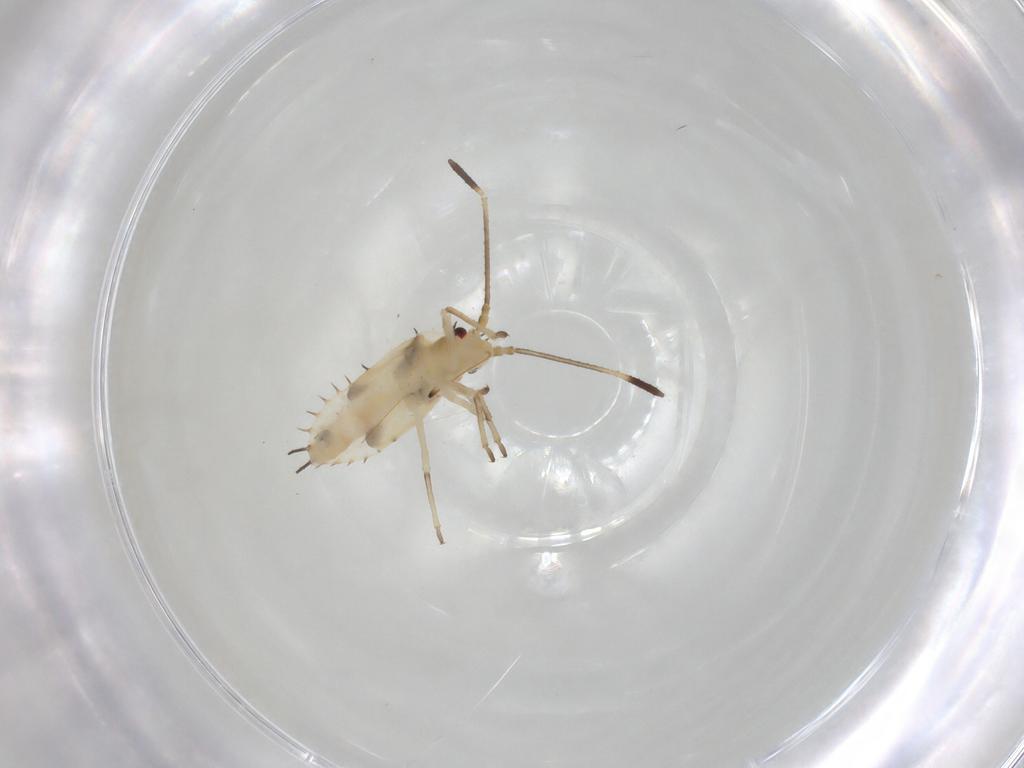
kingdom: Animalia
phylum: Arthropoda
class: Insecta
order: Hemiptera
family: Tingidae
